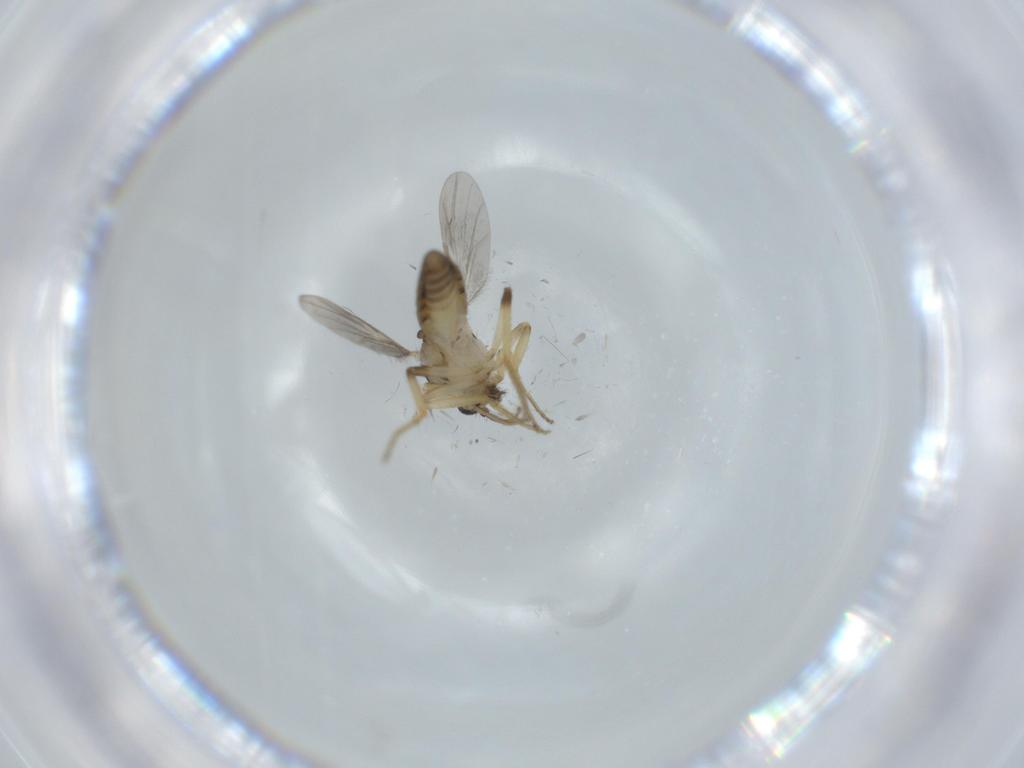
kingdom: Animalia
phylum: Arthropoda
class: Insecta
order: Diptera
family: Ceratopogonidae
